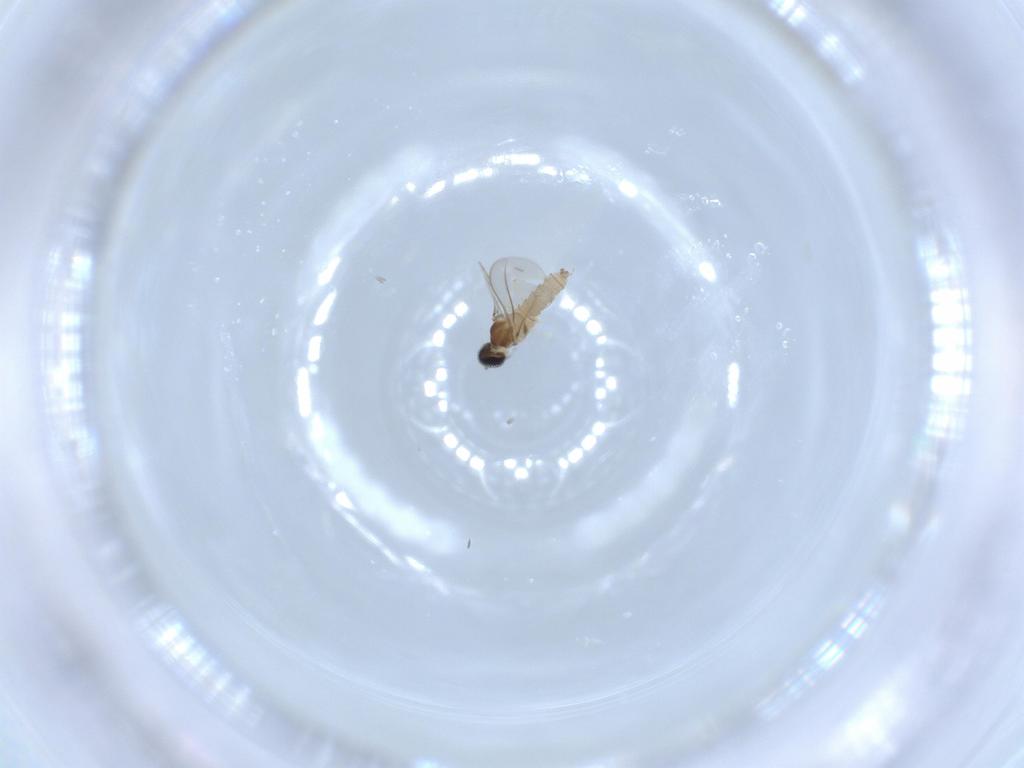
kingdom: Animalia
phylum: Arthropoda
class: Insecta
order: Diptera
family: Cecidomyiidae
